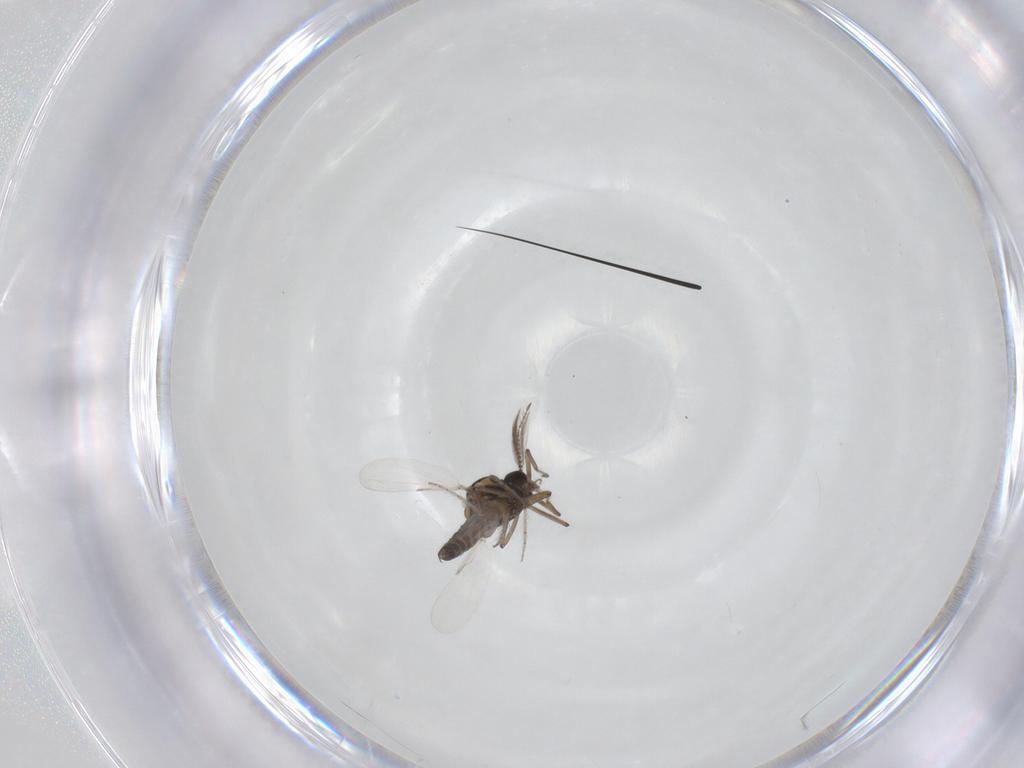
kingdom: Animalia
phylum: Arthropoda
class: Insecta
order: Diptera
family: Ceratopogonidae
